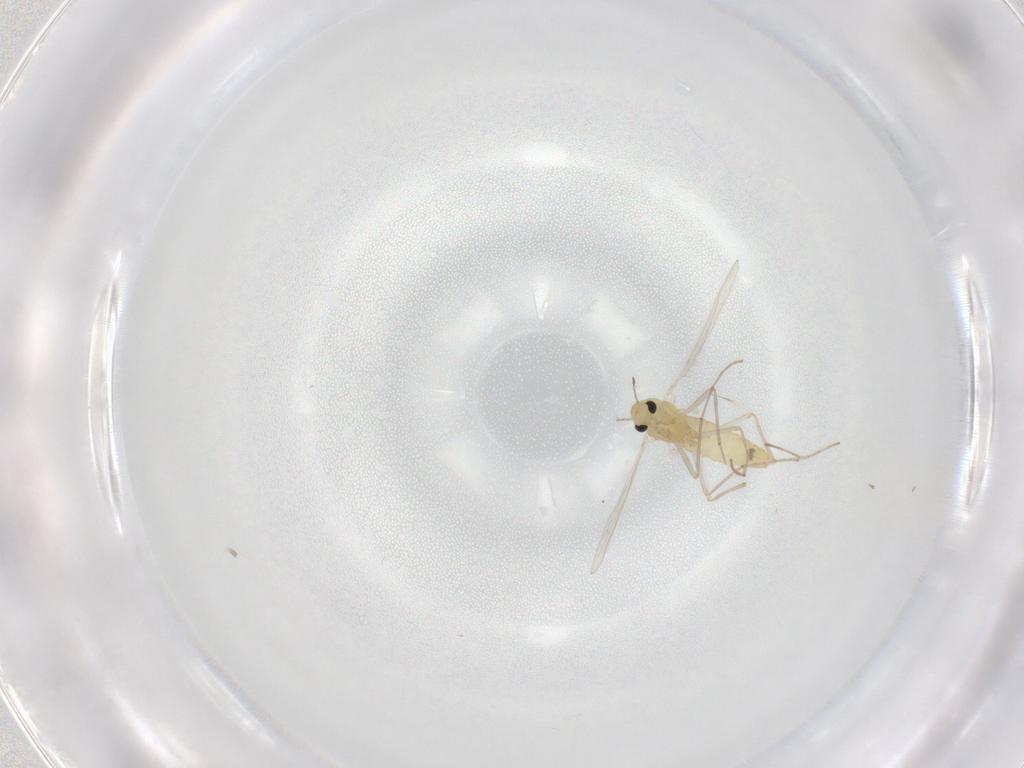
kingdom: Animalia
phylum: Arthropoda
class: Insecta
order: Diptera
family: Chironomidae
